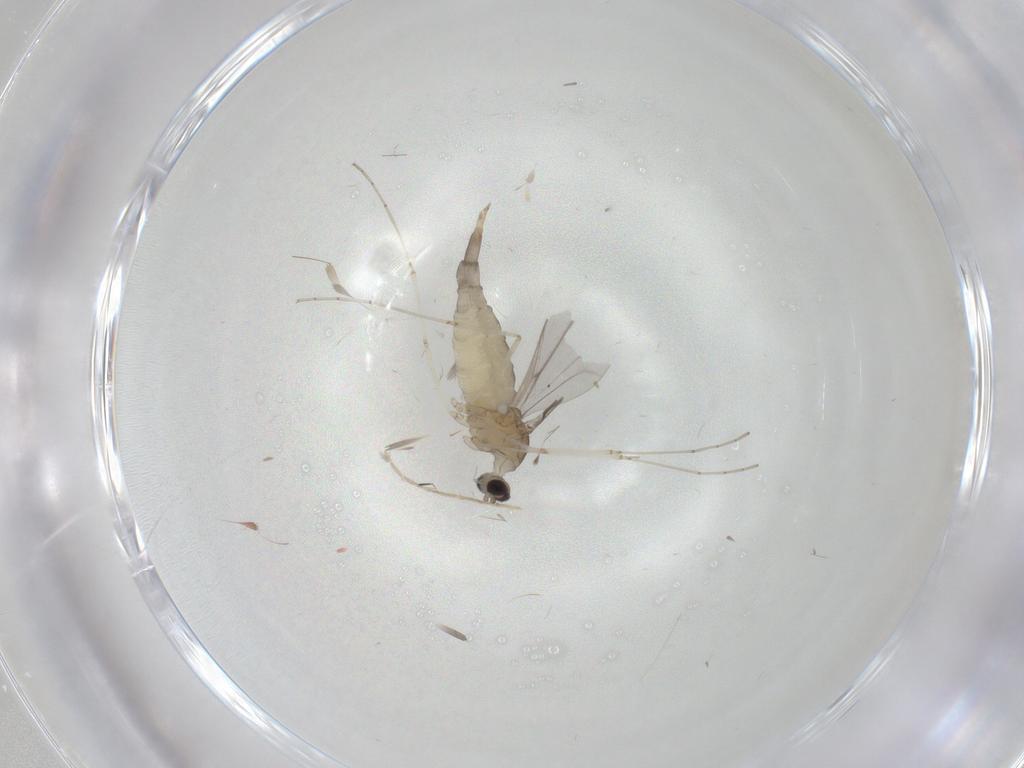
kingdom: Animalia
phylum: Arthropoda
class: Insecta
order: Diptera
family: Cecidomyiidae
